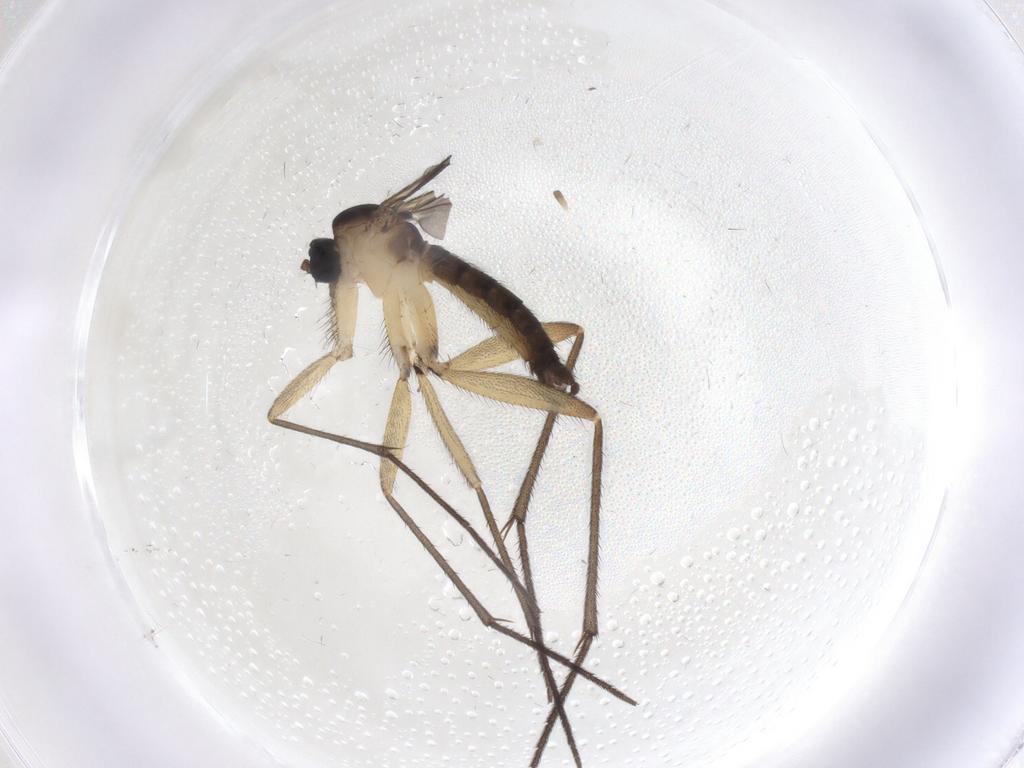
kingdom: Animalia
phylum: Arthropoda
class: Insecta
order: Diptera
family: Sciaridae
